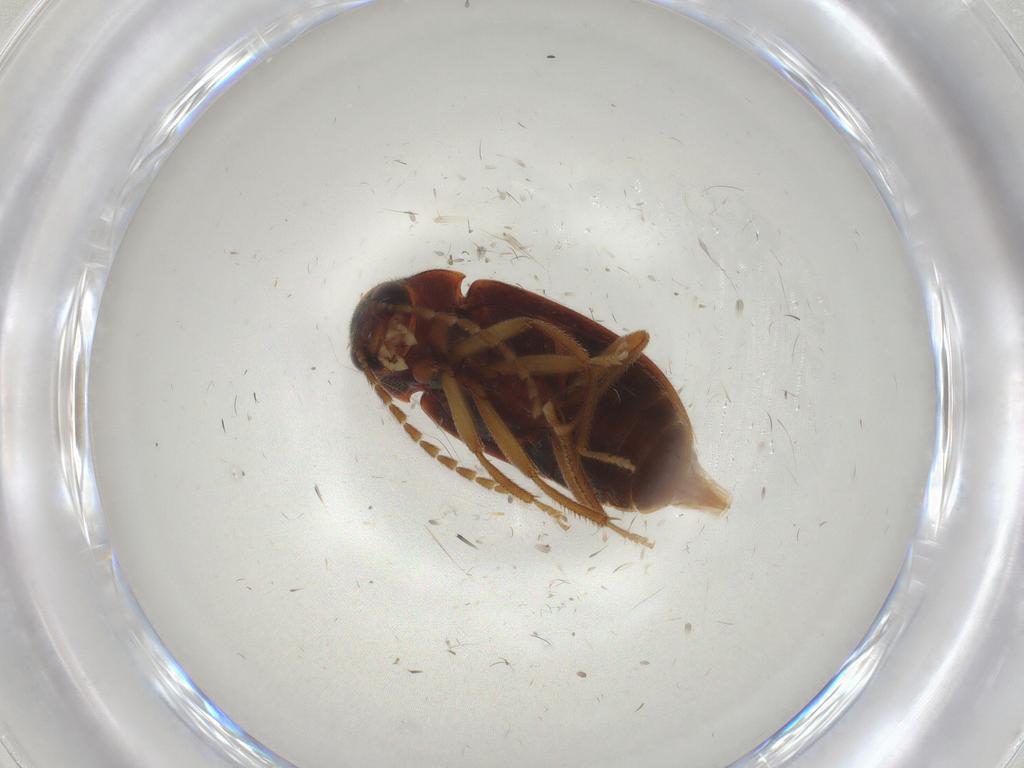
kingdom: Animalia
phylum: Arthropoda
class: Insecta
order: Coleoptera
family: Ptilodactylidae
